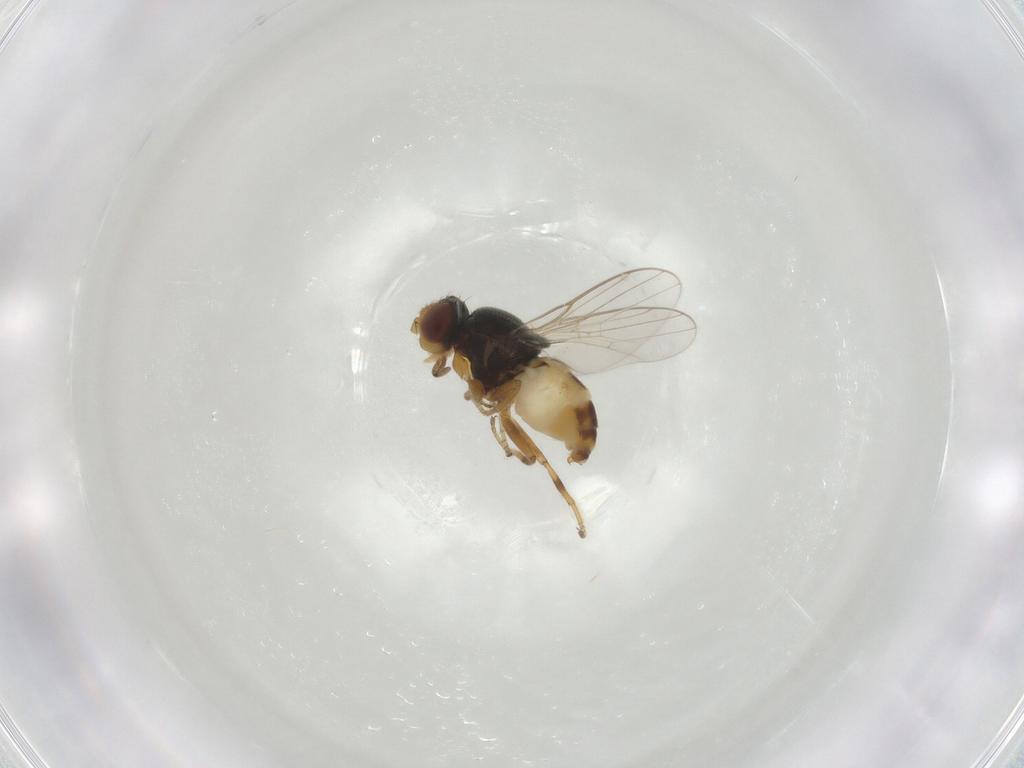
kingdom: Animalia
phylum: Arthropoda
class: Insecta
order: Diptera
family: Chloropidae
